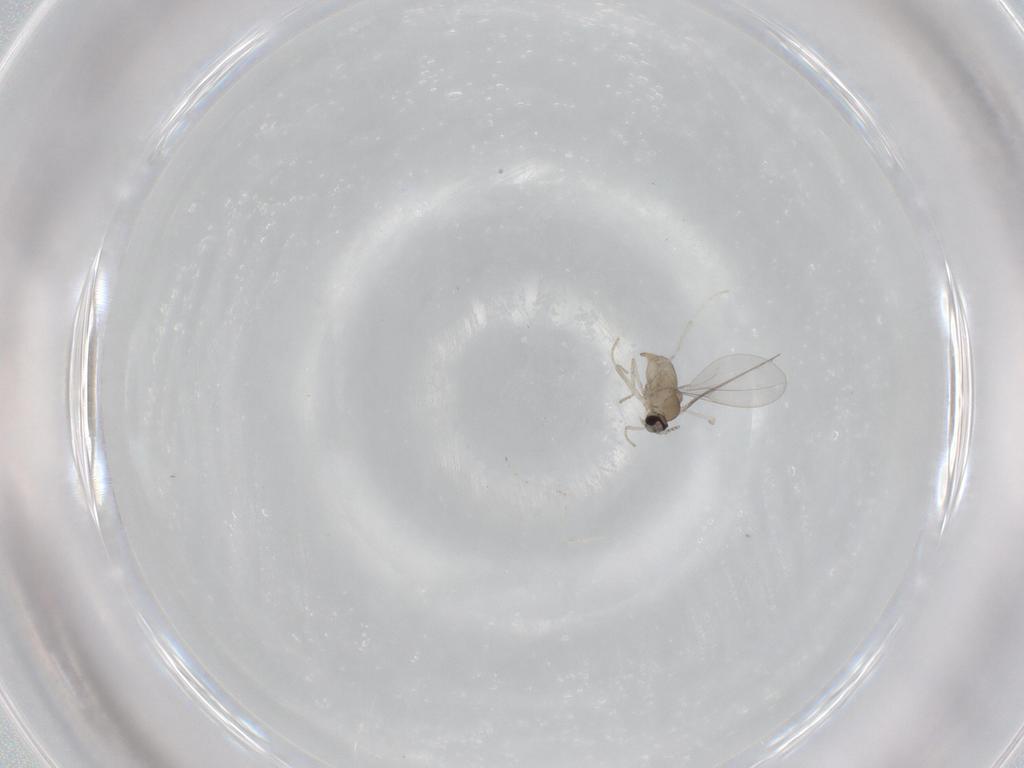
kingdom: Animalia
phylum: Arthropoda
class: Insecta
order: Diptera
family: Cecidomyiidae
